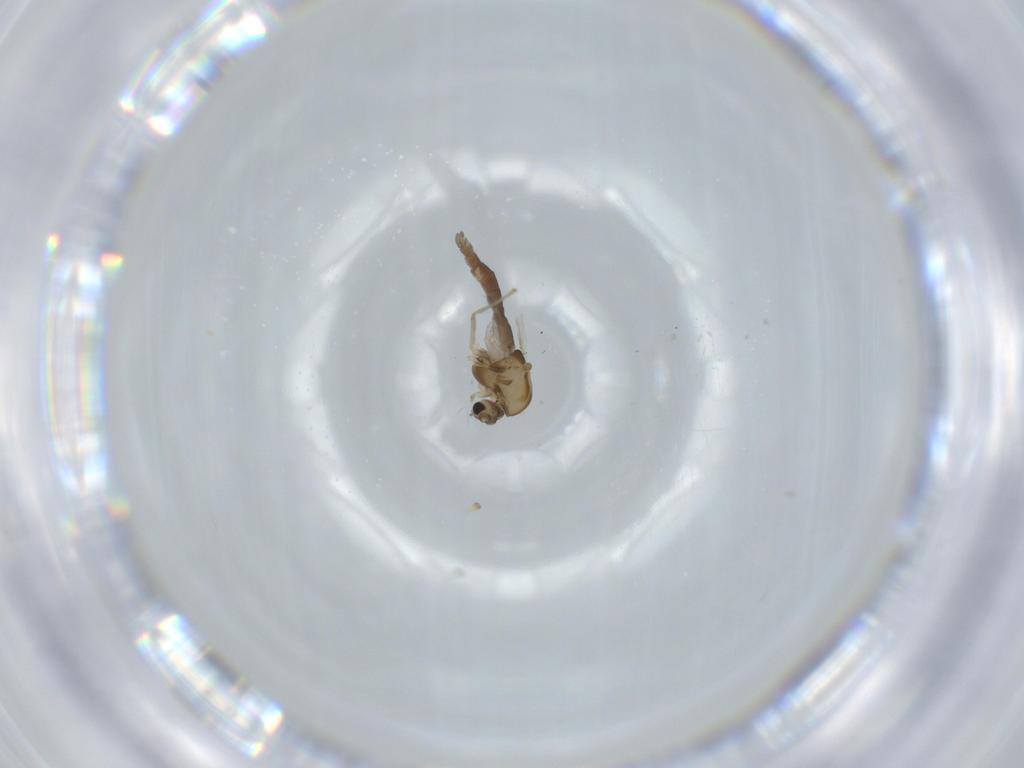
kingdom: Animalia
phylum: Arthropoda
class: Insecta
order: Diptera
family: Chironomidae
